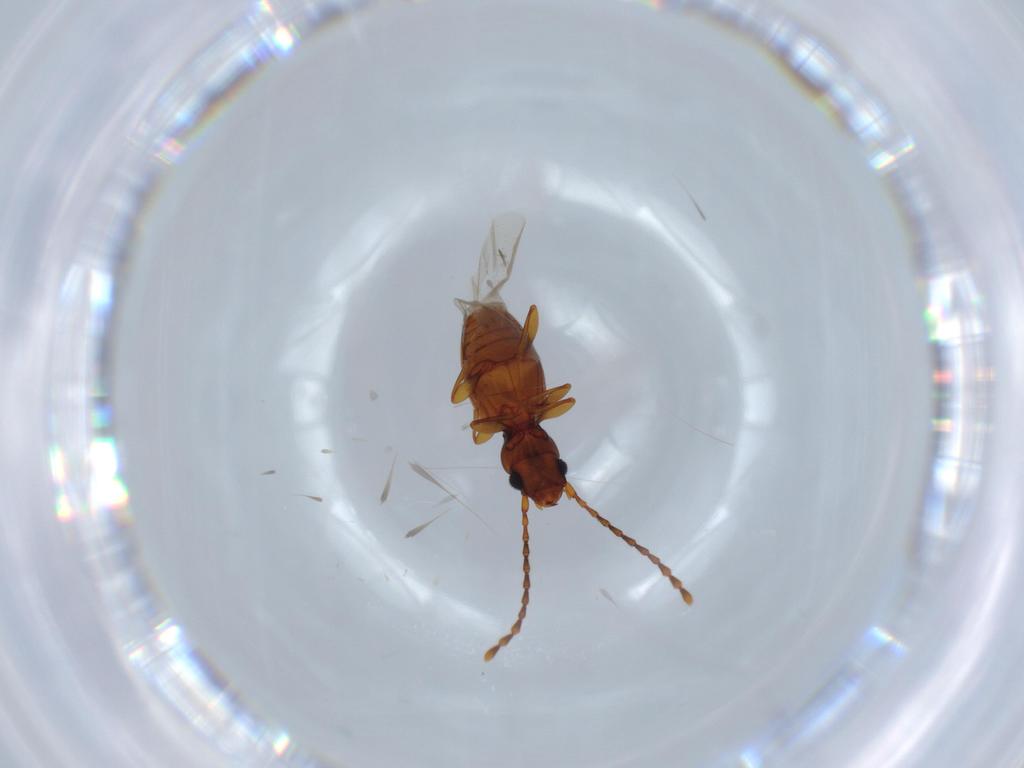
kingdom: Animalia
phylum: Arthropoda
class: Insecta
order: Coleoptera
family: Laemophloeidae
